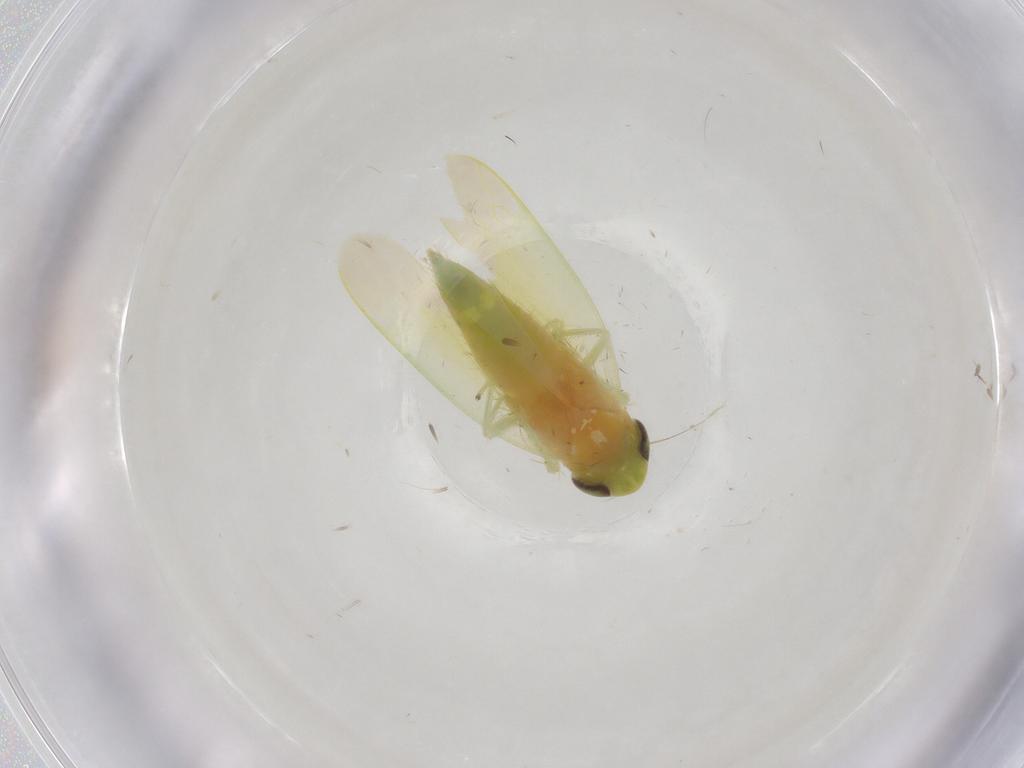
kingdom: Animalia
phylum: Arthropoda
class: Insecta
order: Hemiptera
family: Cicadellidae
